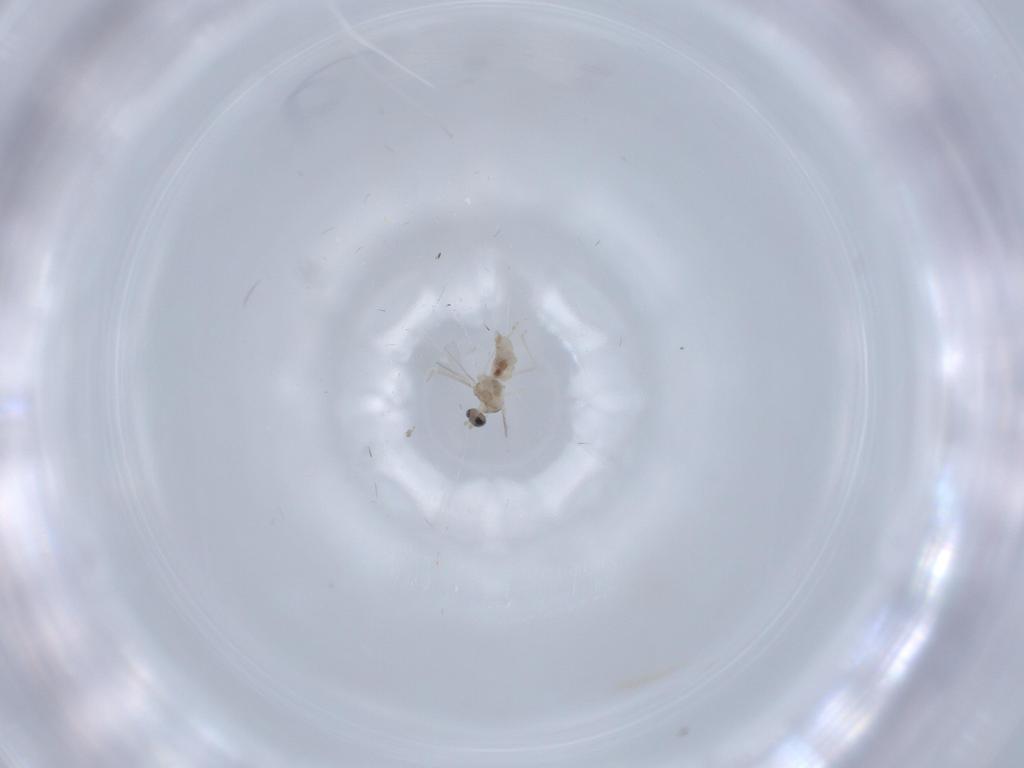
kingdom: Animalia
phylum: Arthropoda
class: Insecta
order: Diptera
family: Cecidomyiidae
